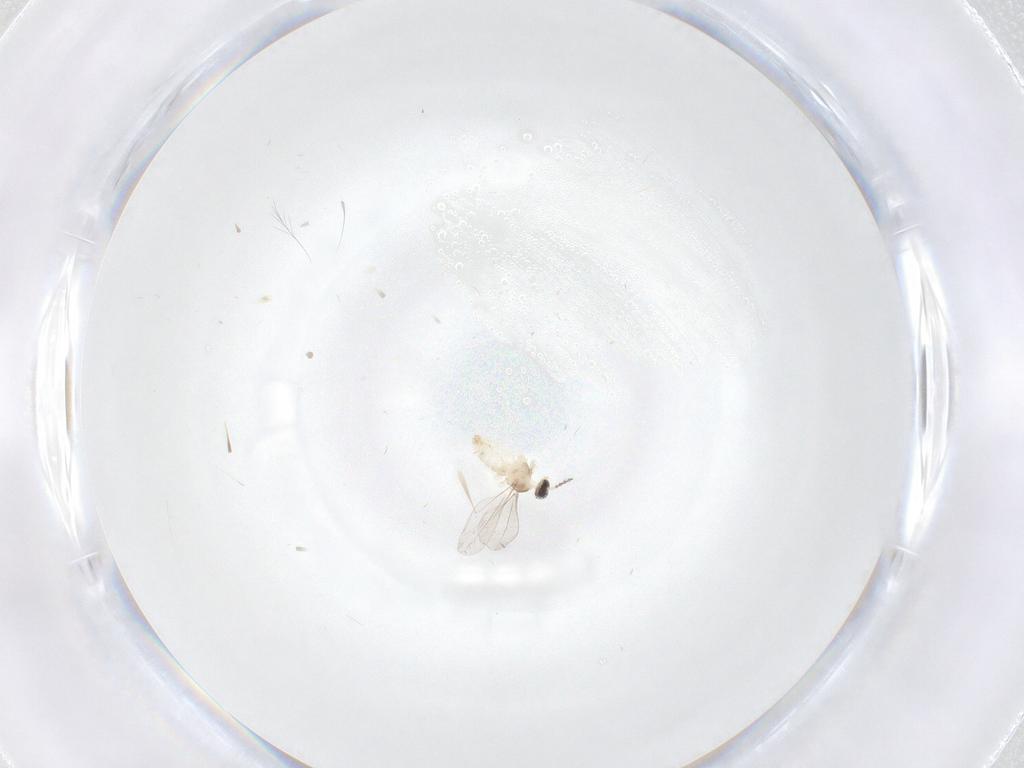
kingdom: Animalia
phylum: Arthropoda
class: Insecta
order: Diptera
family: Cecidomyiidae
